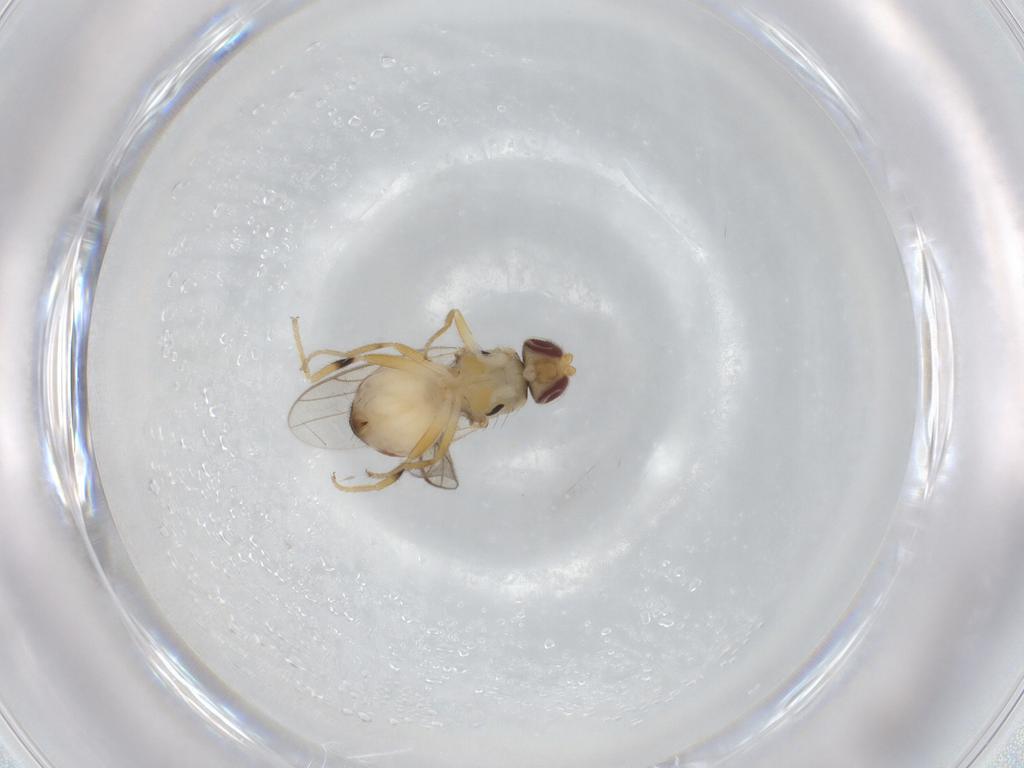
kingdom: Animalia
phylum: Arthropoda
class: Insecta
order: Diptera
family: Chloropidae
